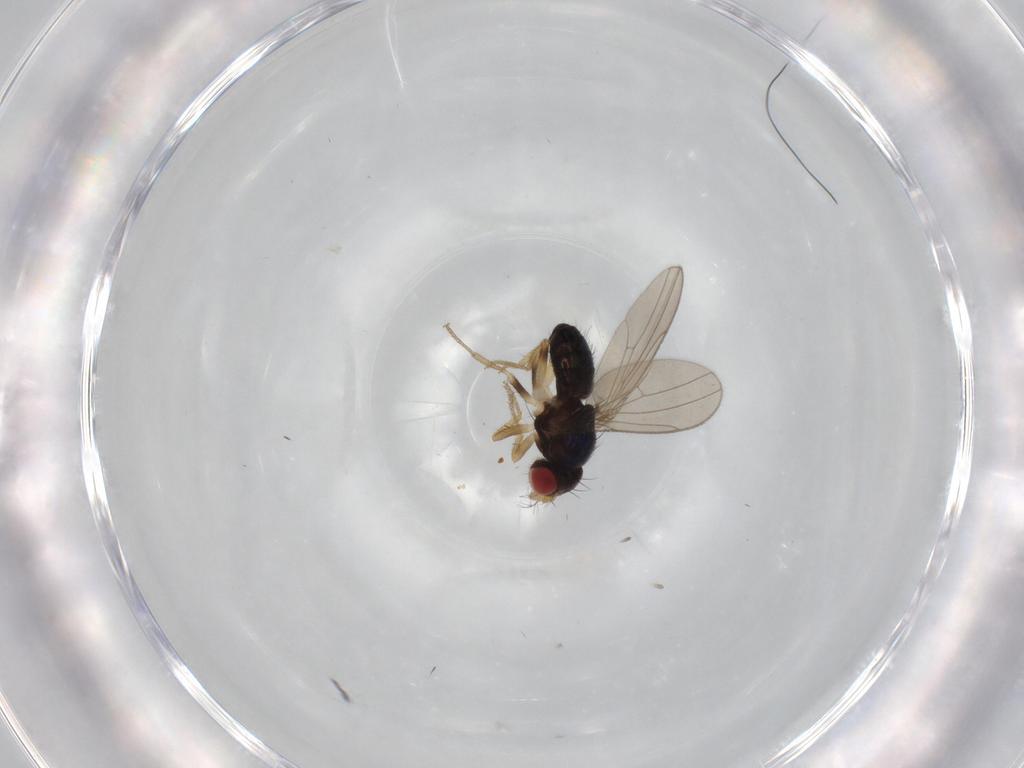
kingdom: Animalia
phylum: Arthropoda
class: Insecta
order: Diptera
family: Drosophilidae
